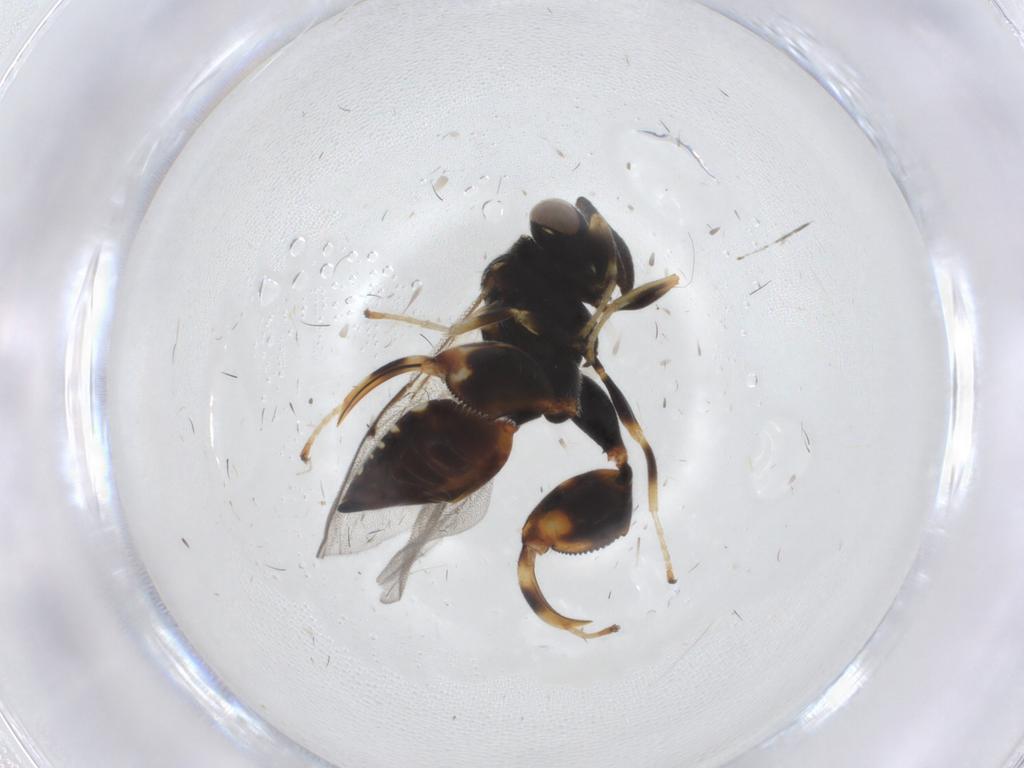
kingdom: Animalia
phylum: Arthropoda
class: Insecta
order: Hymenoptera
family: Chalcididae
